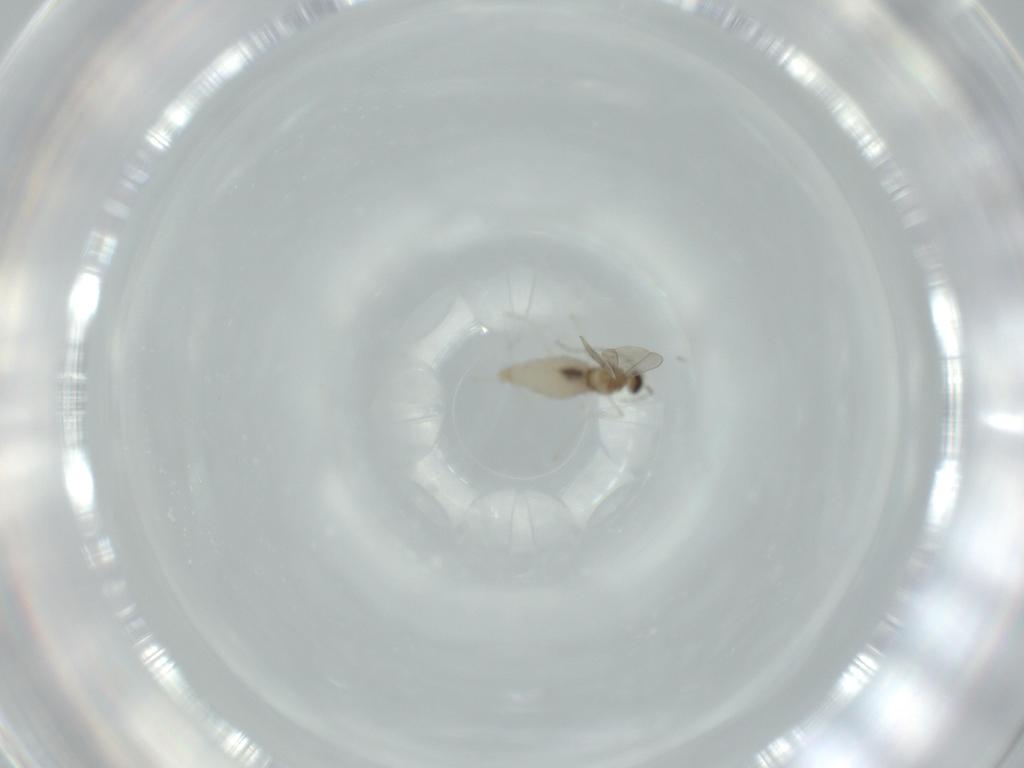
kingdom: Animalia
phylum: Arthropoda
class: Insecta
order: Diptera
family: Cecidomyiidae
